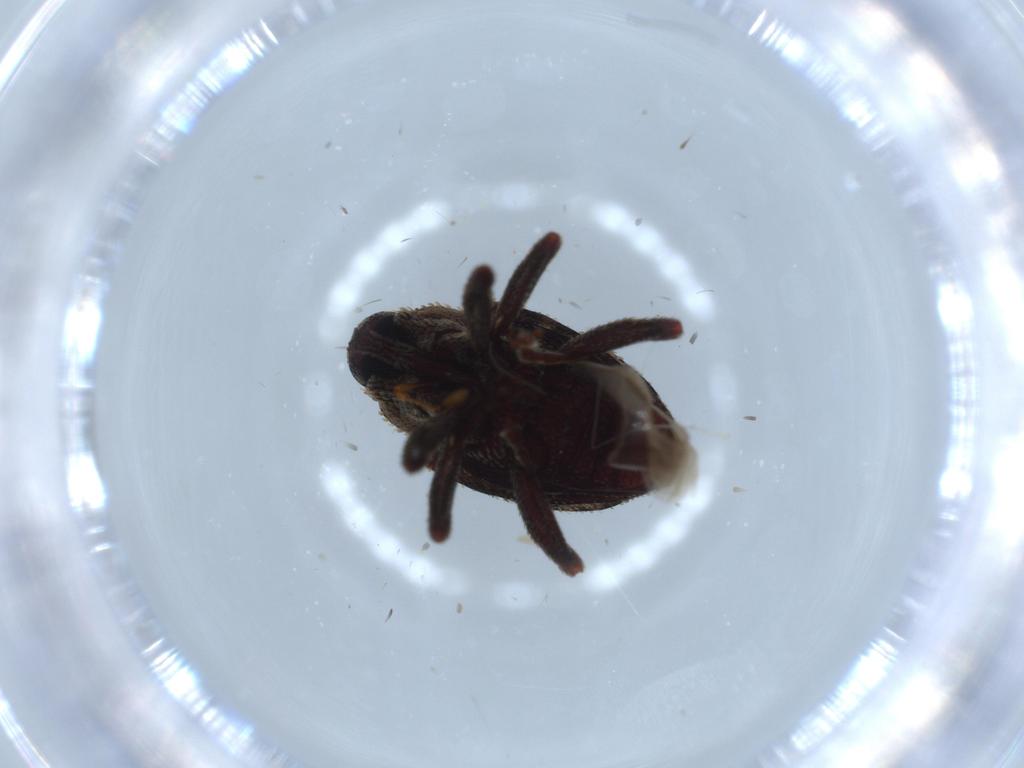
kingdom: Animalia
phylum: Arthropoda
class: Insecta
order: Coleoptera
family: Curculionidae
